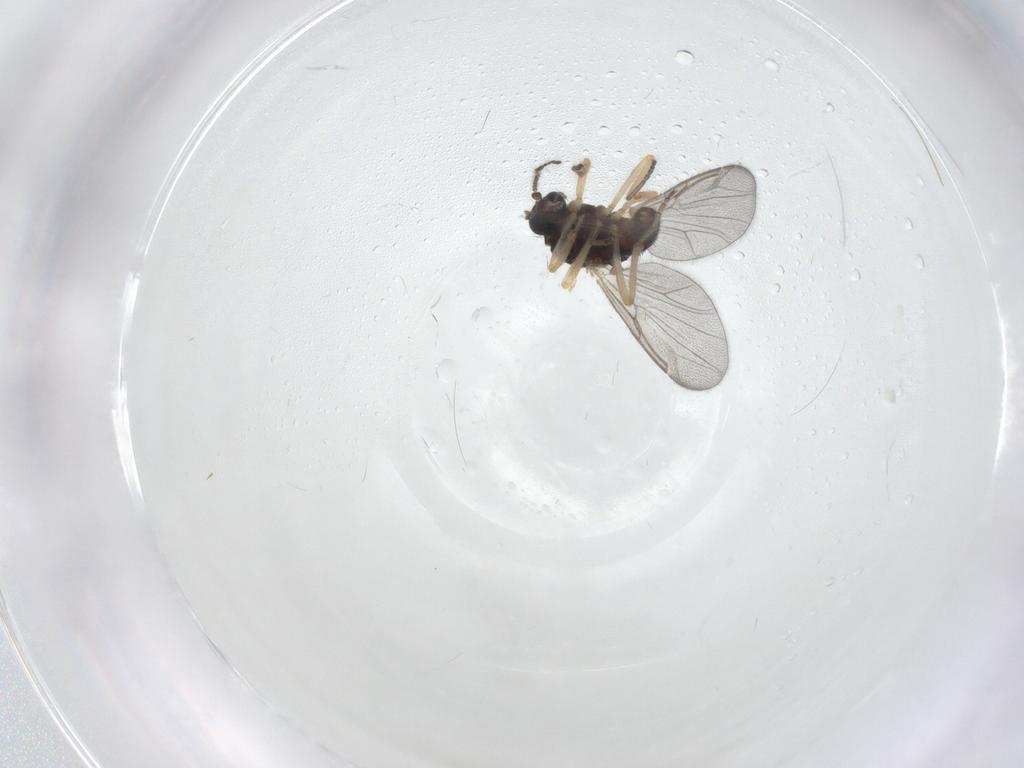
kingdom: Animalia
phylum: Arthropoda
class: Insecta
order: Diptera
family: Ceratopogonidae
